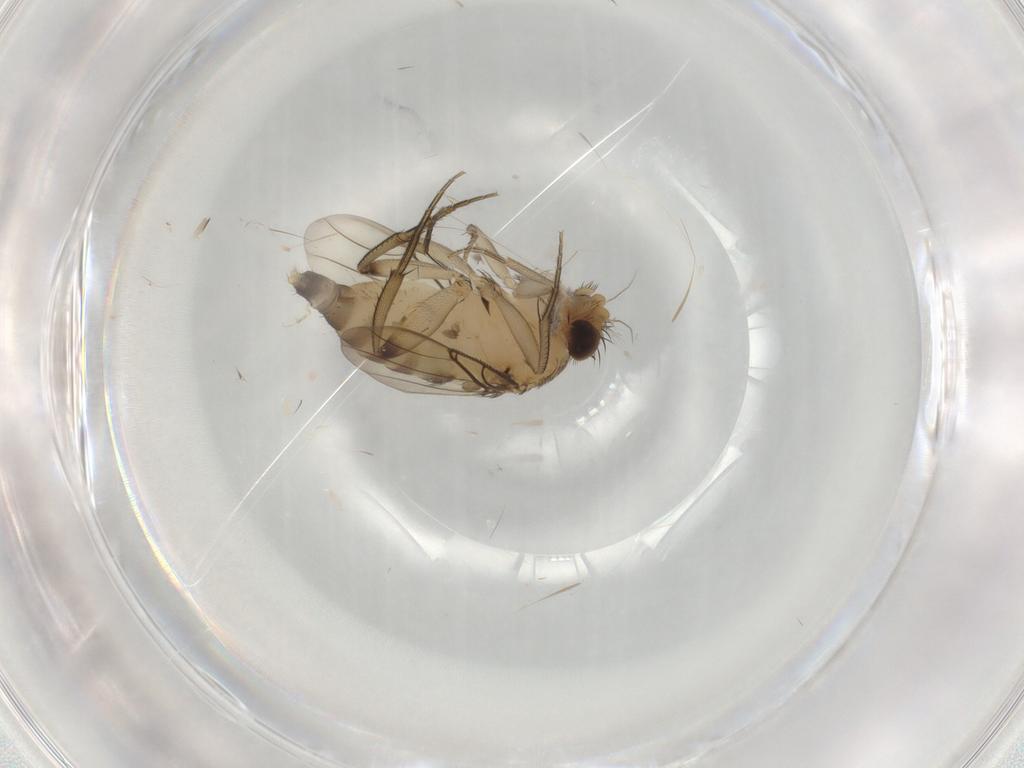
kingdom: Animalia
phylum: Arthropoda
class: Insecta
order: Diptera
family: Phoridae
